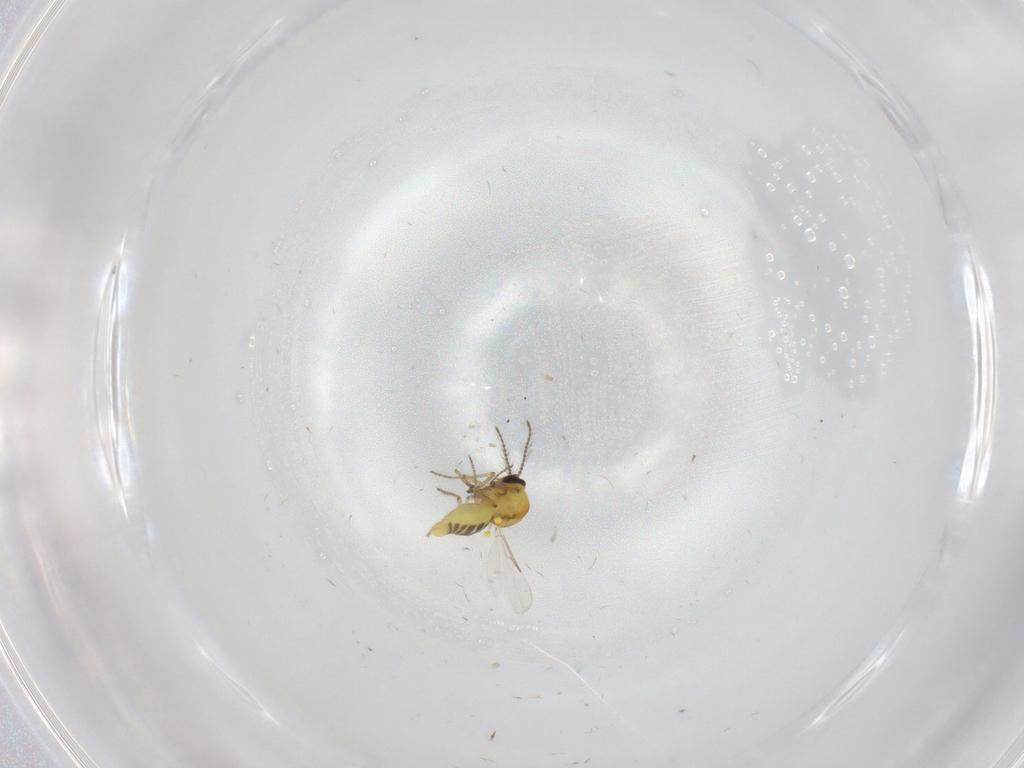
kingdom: Animalia
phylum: Arthropoda
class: Insecta
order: Diptera
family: Ceratopogonidae
